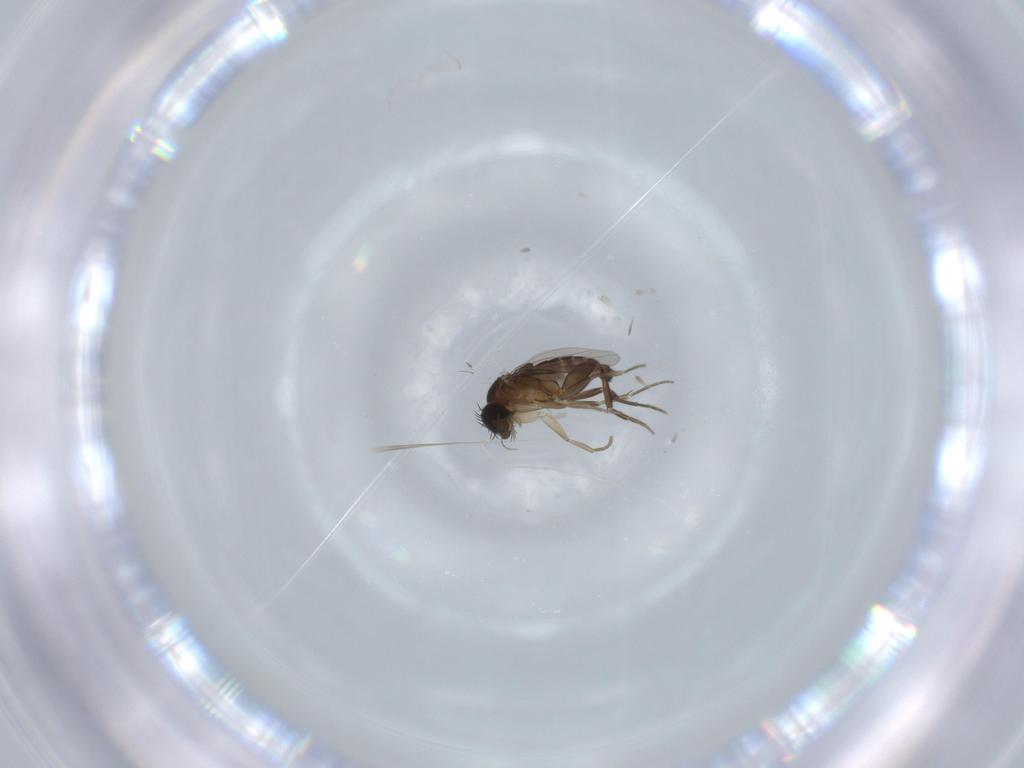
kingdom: Animalia
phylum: Arthropoda
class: Insecta
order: Diptera
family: Phoridae
